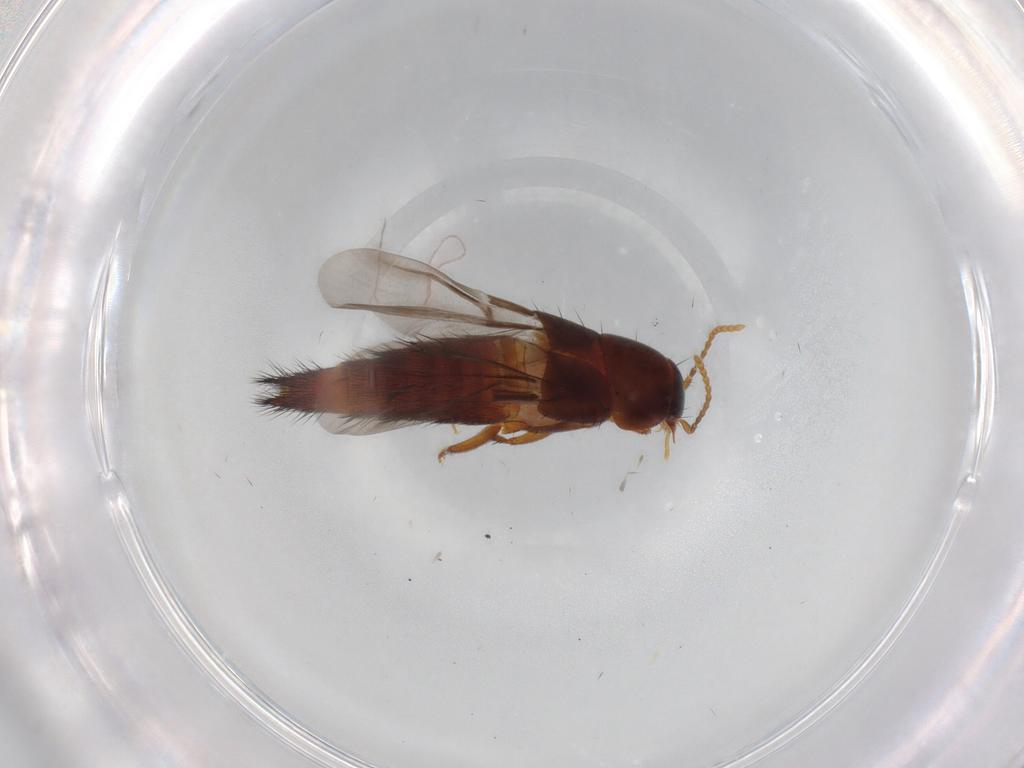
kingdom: Animalia
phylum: Arthropoda
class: Insecta
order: Coleoptera
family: Staphylinidae
